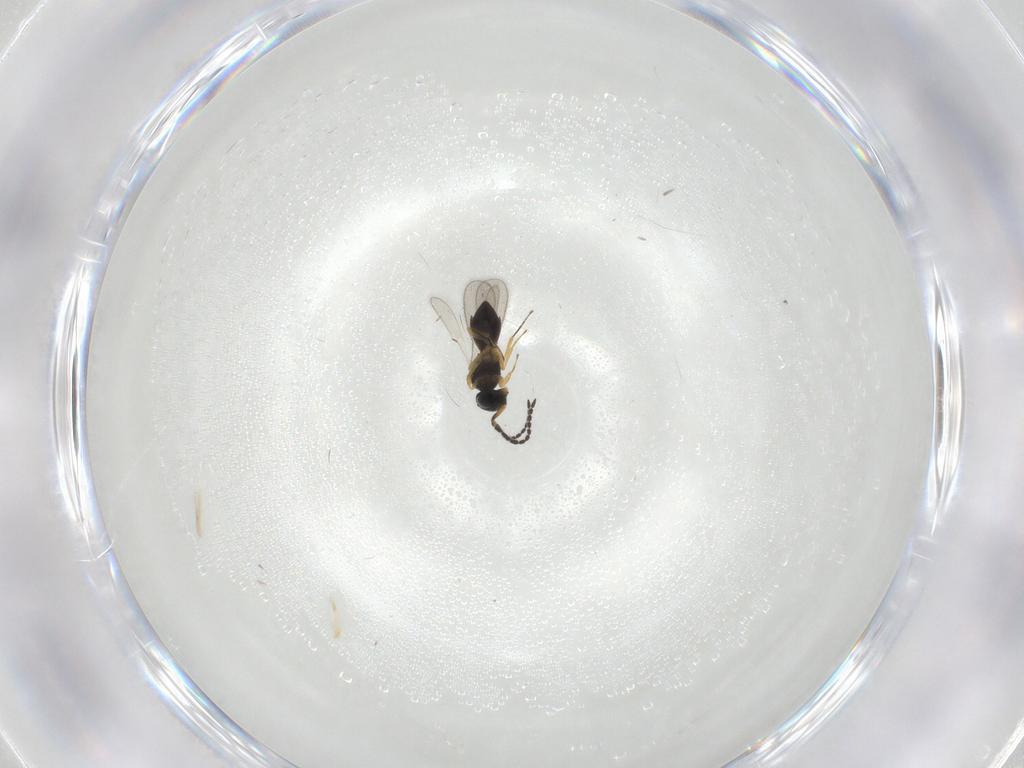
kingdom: Animalia
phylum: Arthropoda
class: Insecta
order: Hymenoptera
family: Scelionidae
